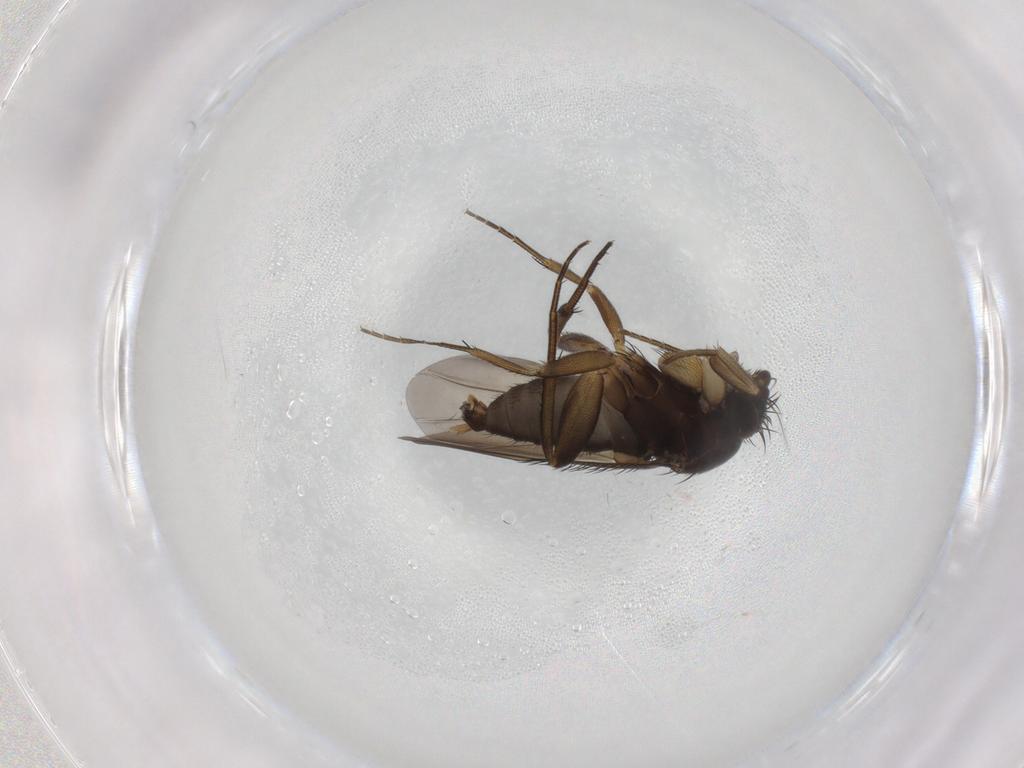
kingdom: Animalia
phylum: Arthropoda
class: Insecta
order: Diptera
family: Phoridae
